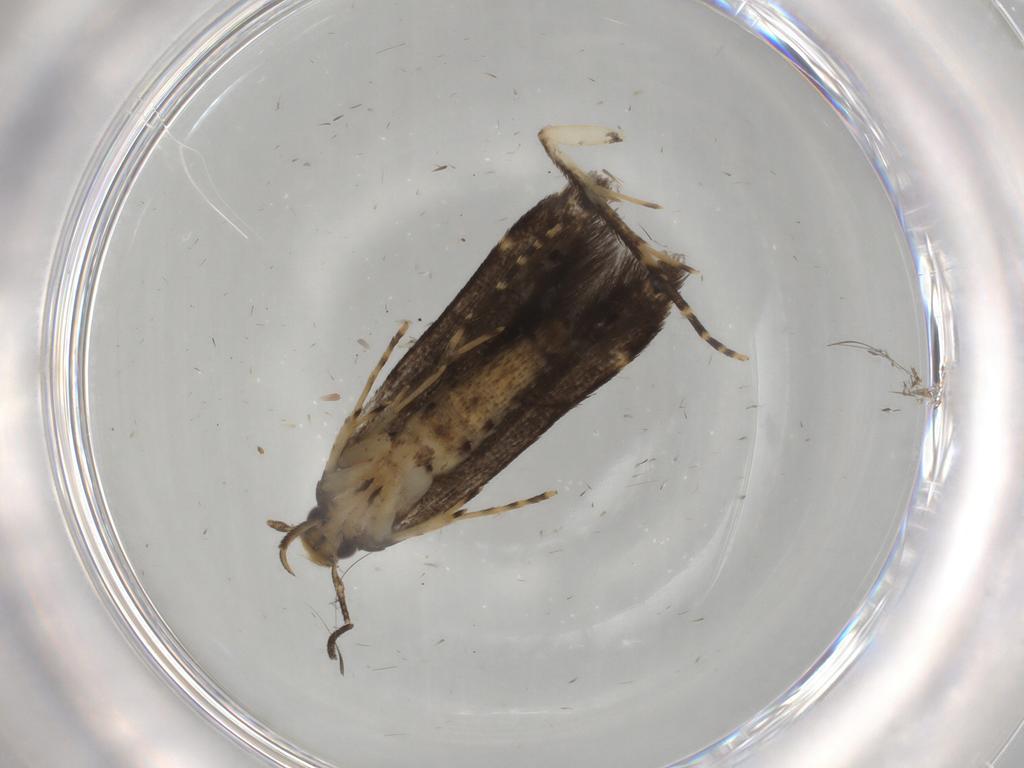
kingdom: Animalia
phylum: Arthropoda
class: Insecta
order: Lepidoptera
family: Cosmopterigidae
